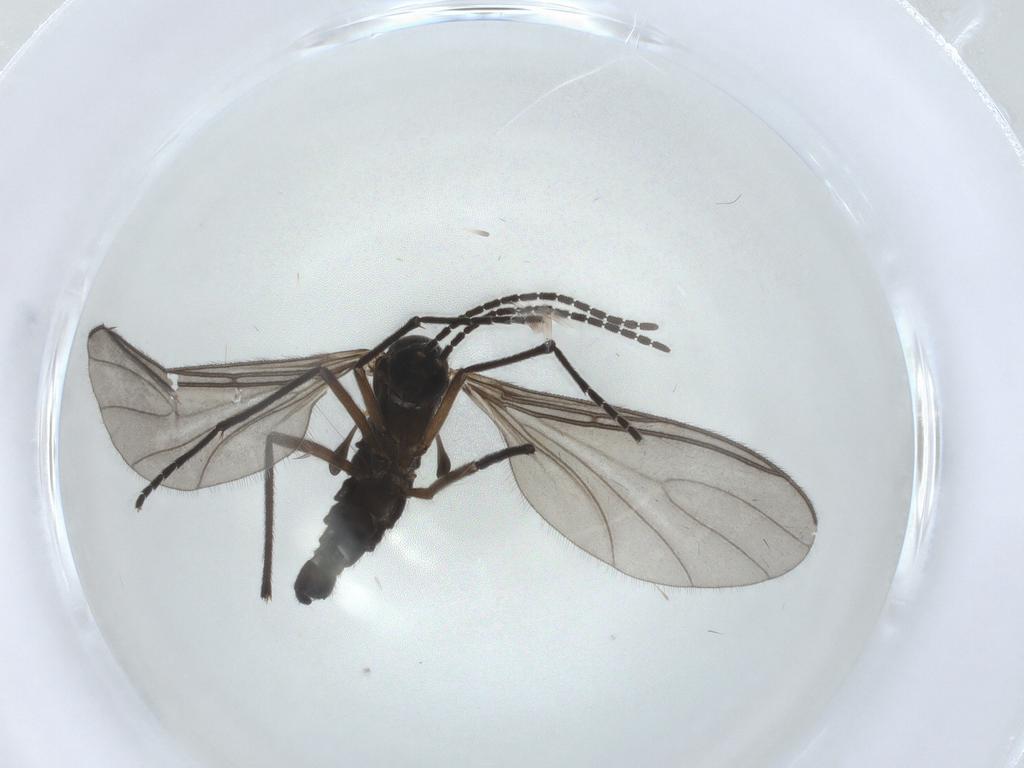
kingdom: Animalia
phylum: Arthropoda
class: Insecta
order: Diptera
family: Sciaridae
